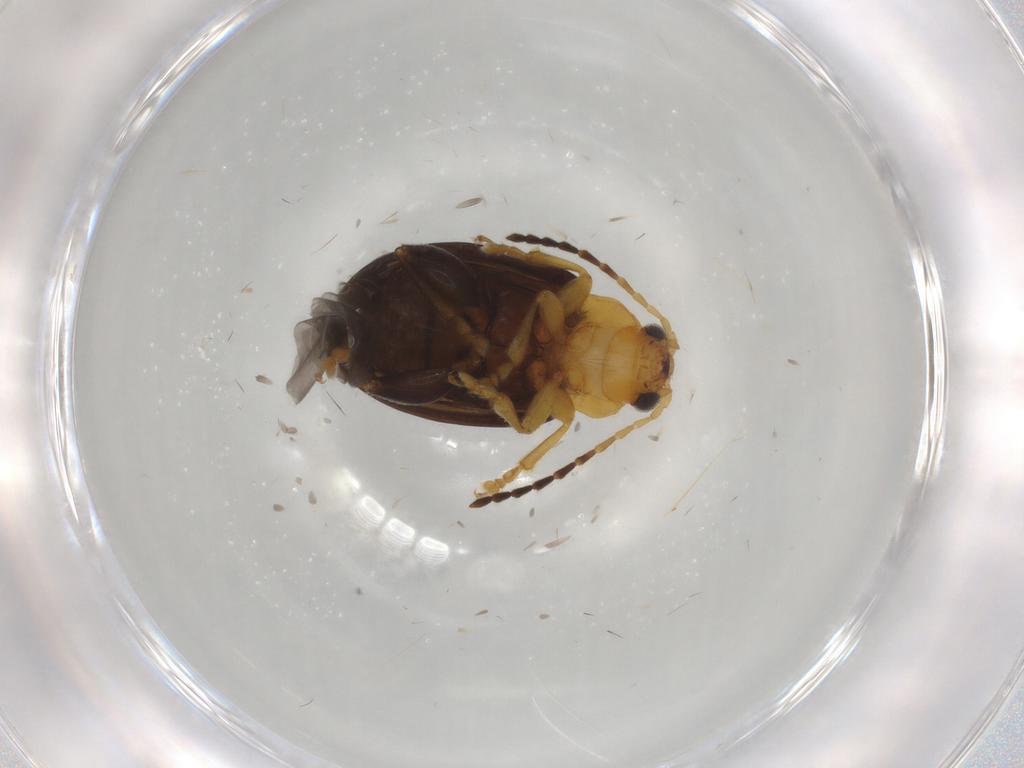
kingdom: Animalia
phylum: Arthropoda
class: Insecta
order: Coleoptera
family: Chrysomelidae
